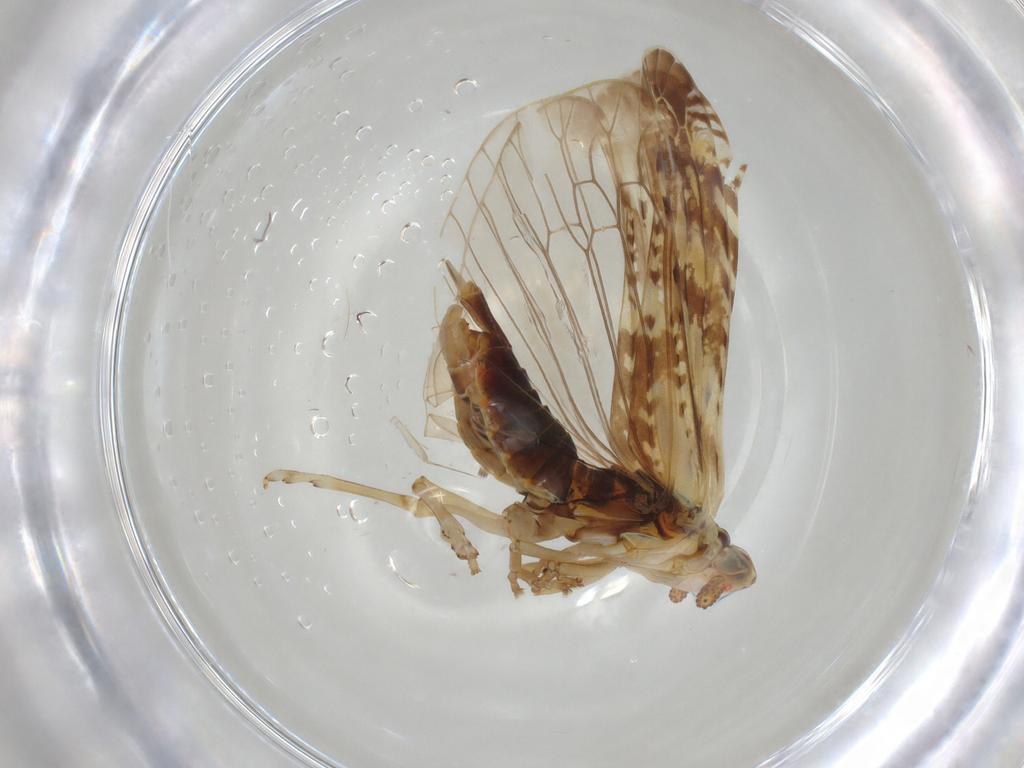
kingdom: Animalia
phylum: Arthropoda
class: Insecta
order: Hemiptera
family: Achilidae
